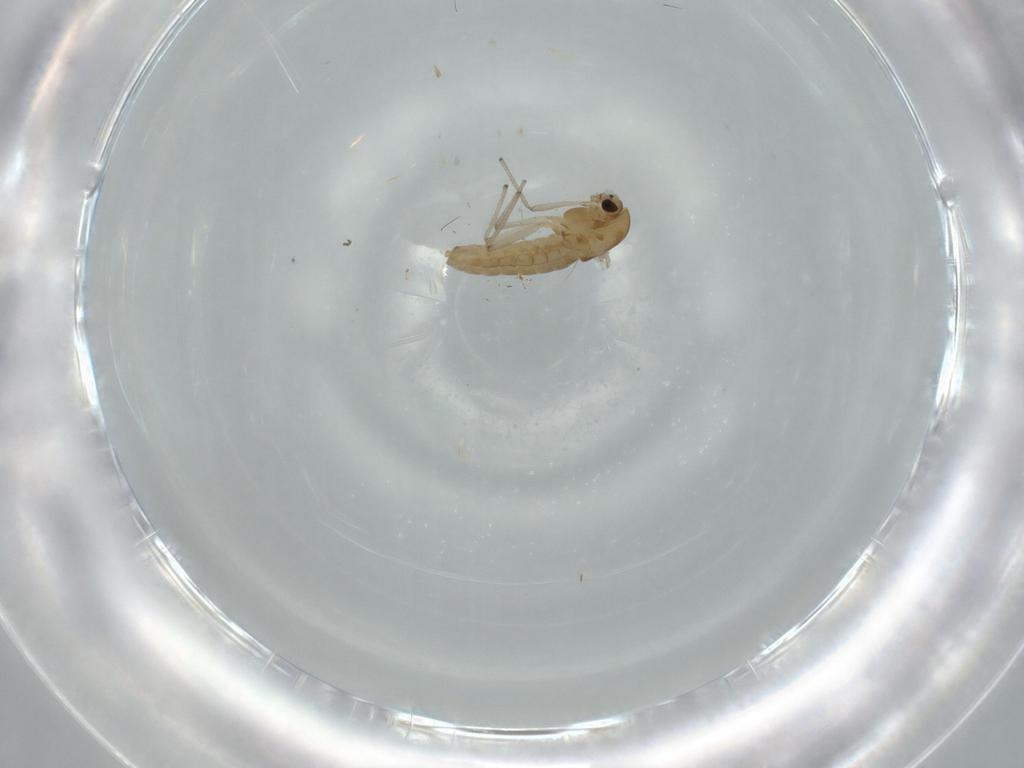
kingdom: Animalia
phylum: Arthropoda
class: Insecta
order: Diptera
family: Chironomidae
